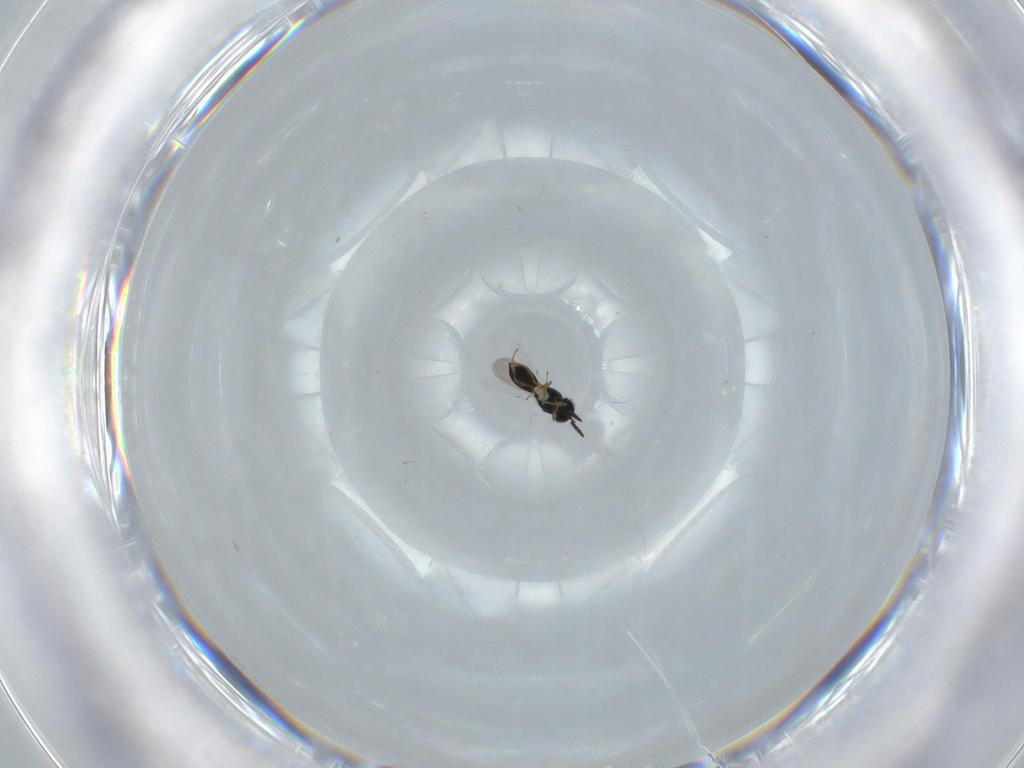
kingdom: Animalia
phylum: Arthropoda
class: Insecta
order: Hymenoptera
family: Scelionidae
